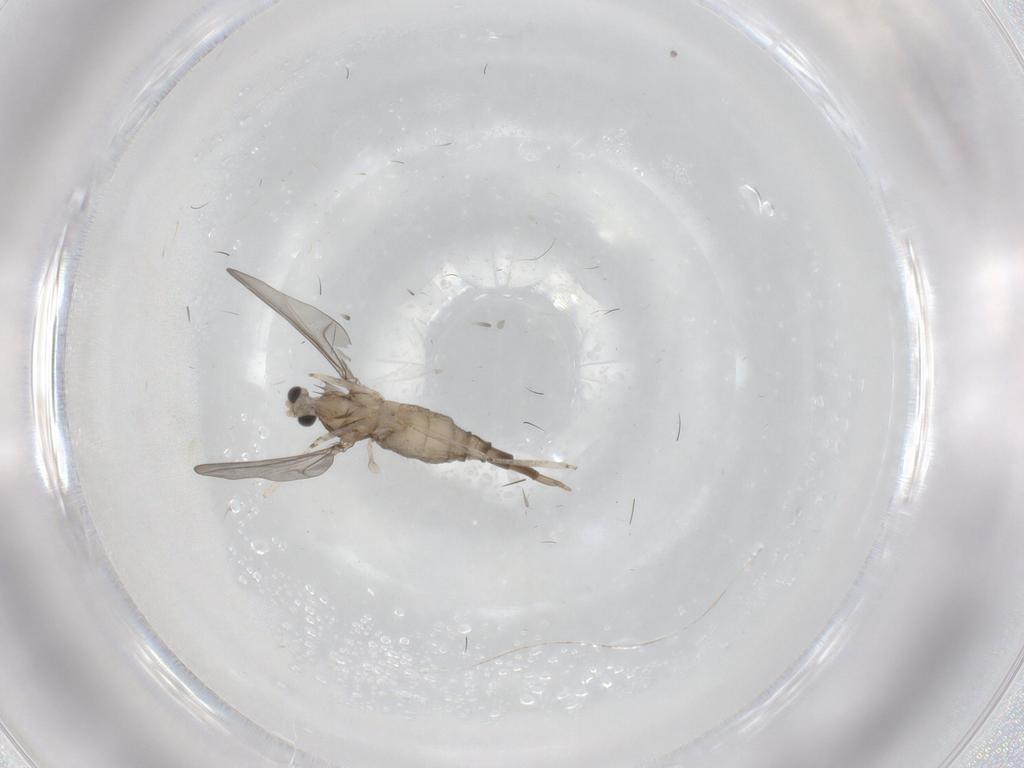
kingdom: Animalia
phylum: Arthropoda
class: Insecta
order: Diptera
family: Cecidomyiidae
